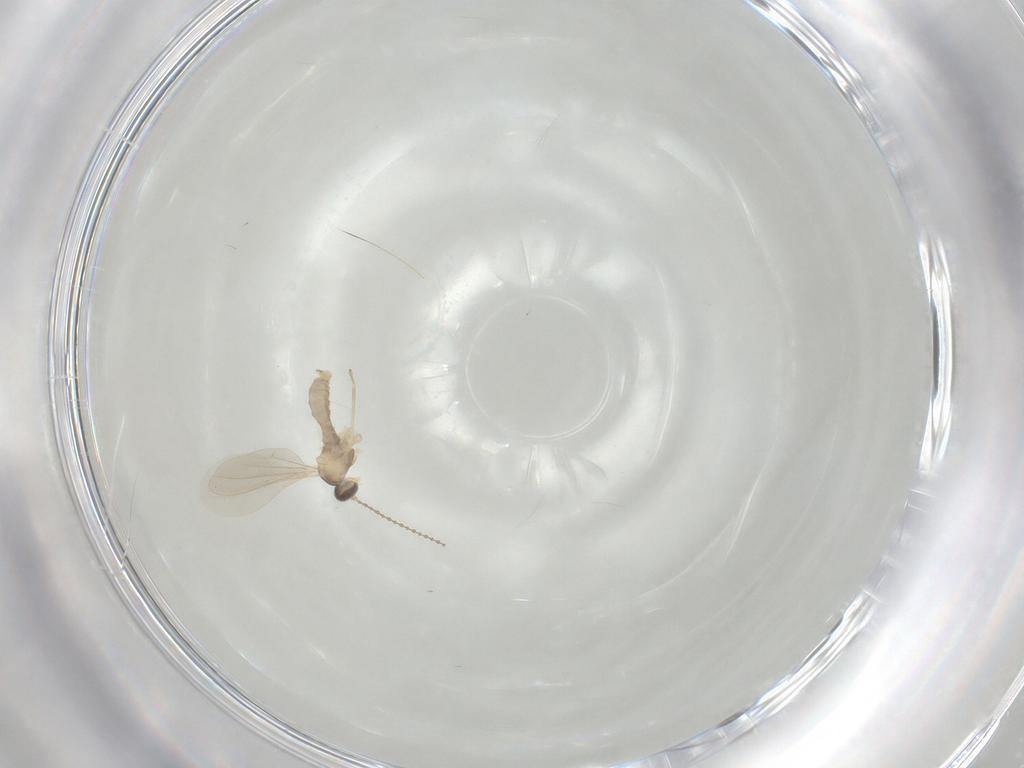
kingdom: Animalia
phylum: Arthropoda
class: Insecta
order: Diptera
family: Cecidomyiidae
